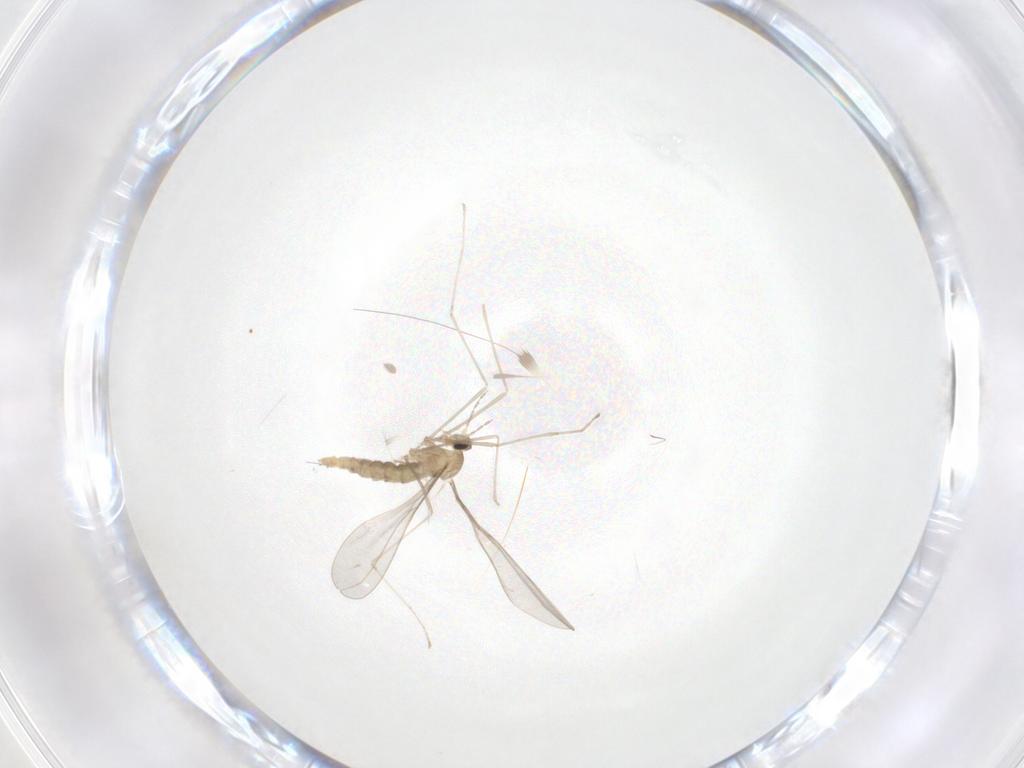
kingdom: Animalia
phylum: Arthropoda
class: Insecta
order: Diptera
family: Cecidomyiidae
